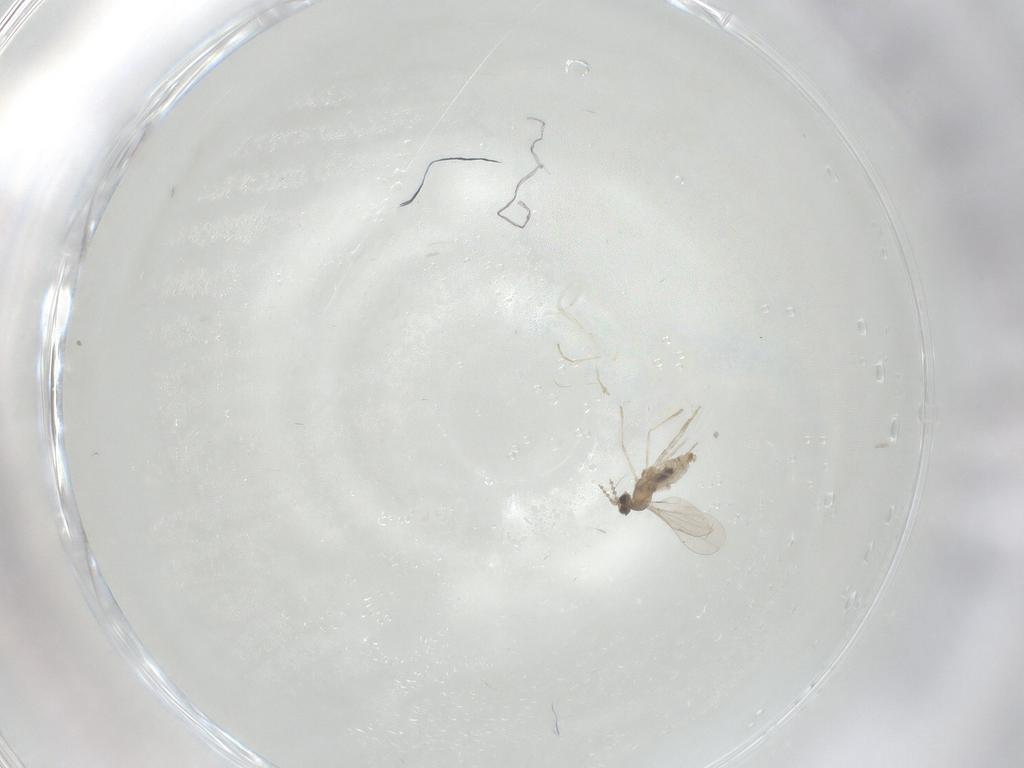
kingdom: Animalia
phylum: Arthropoda
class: Insecta
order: Diptera
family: Cecidomyiidae
